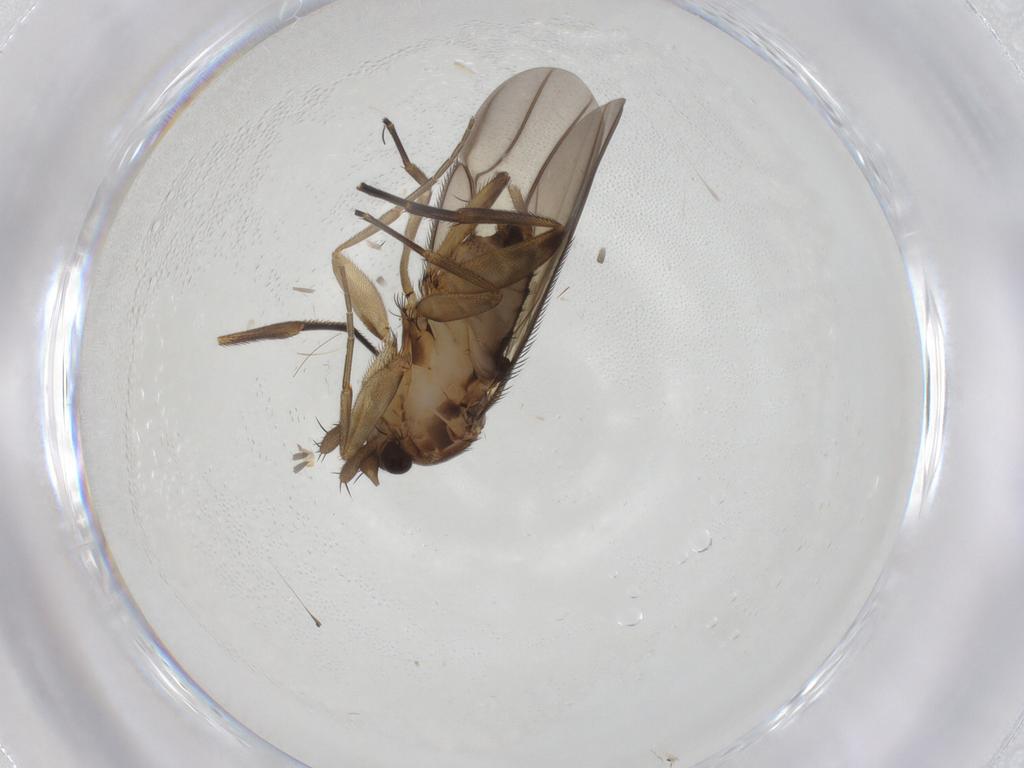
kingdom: Animalia
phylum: Arthropoda
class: Insecta
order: Diptera
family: Phoridae
